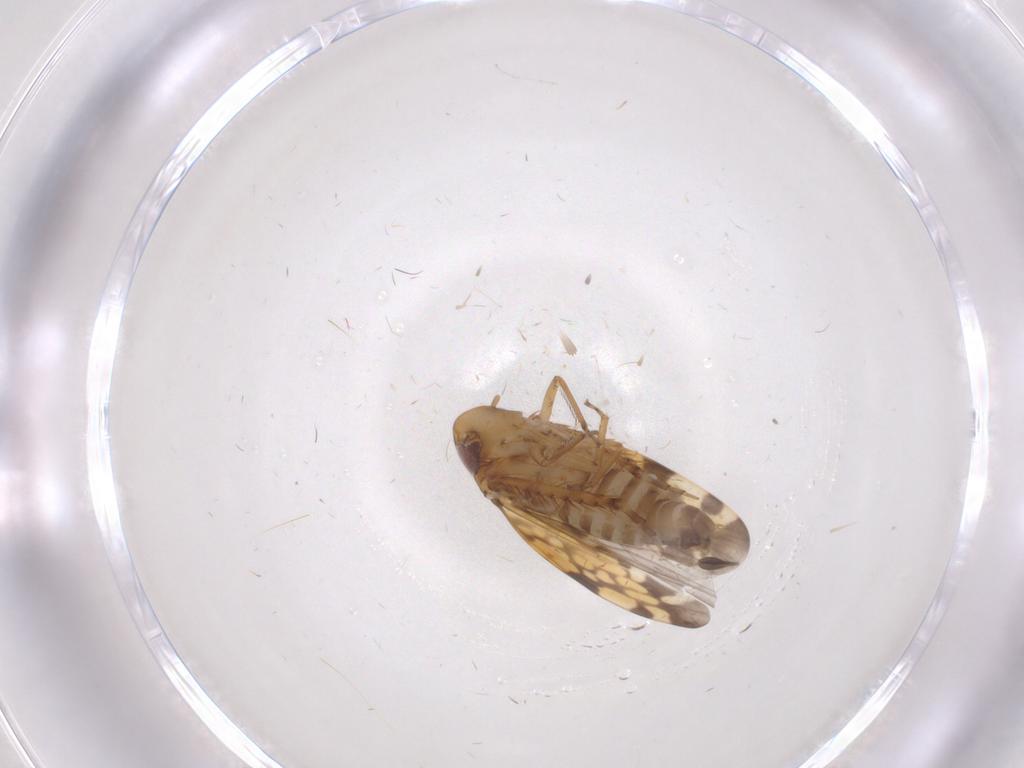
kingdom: Animalia
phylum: Arthropoda
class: Insecta
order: Hemiptera
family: Cicadellidae
